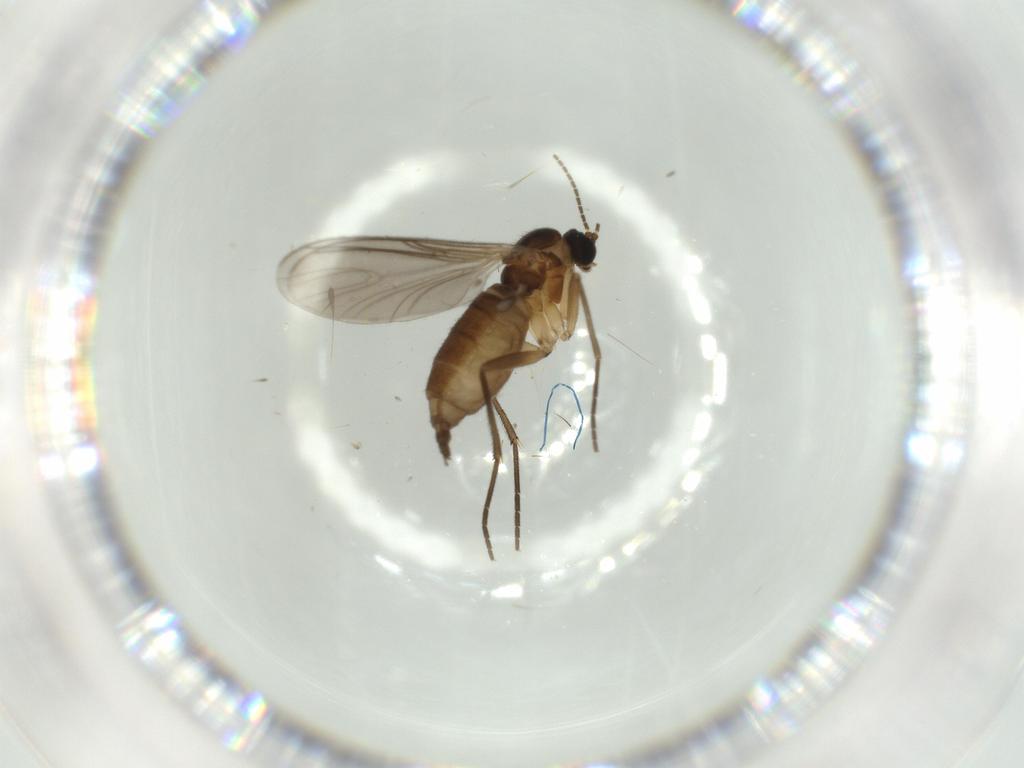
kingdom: Animalia
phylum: Arthropoda
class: Insecta
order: Diptera
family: Sciaridae
